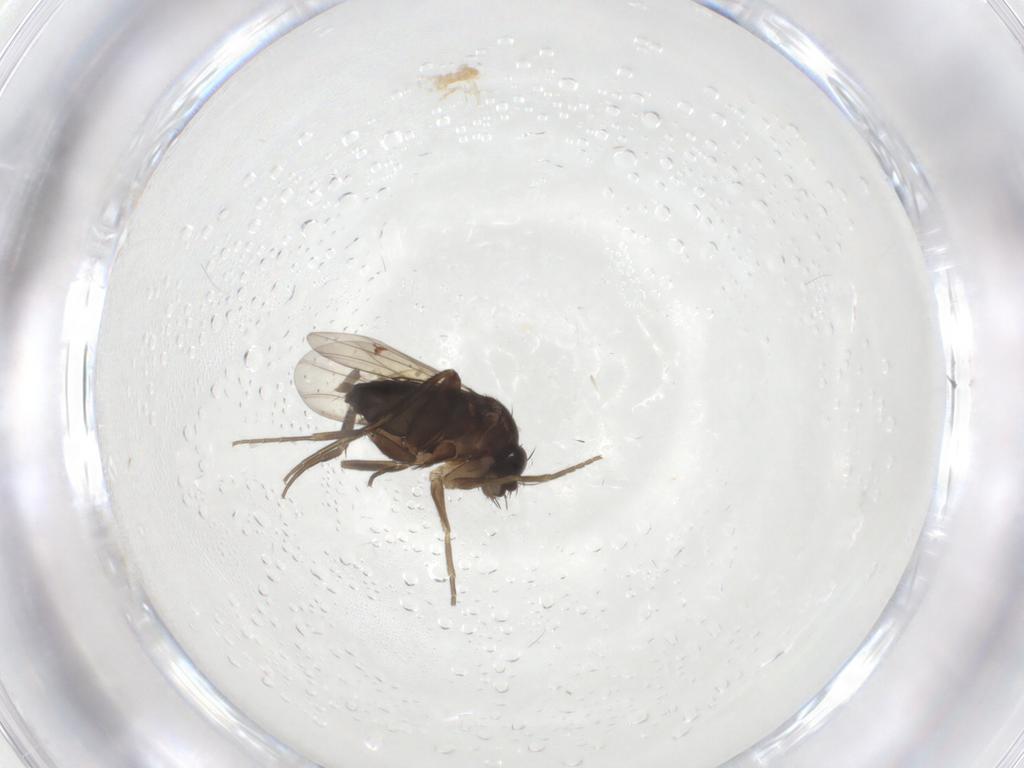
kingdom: Animalia
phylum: Arthropoda
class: Insecta
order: Diptera
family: Phoridae
